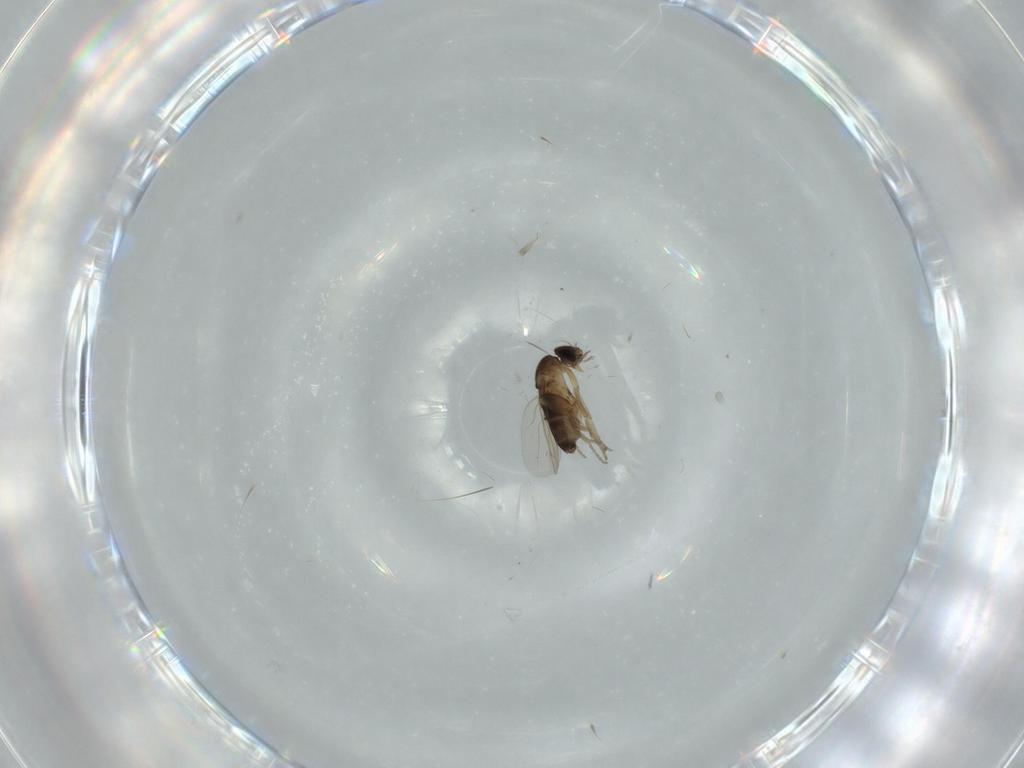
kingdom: Animalia
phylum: Arthropoda
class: Insecta
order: Diptera
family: Phoridae
